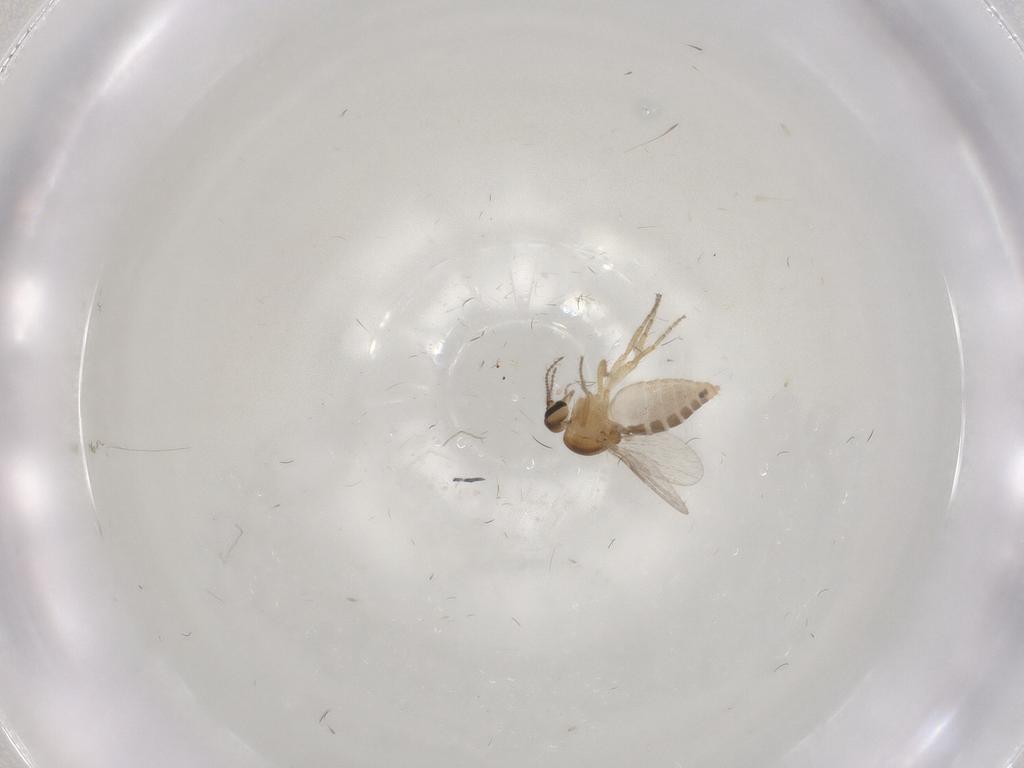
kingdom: Animalia
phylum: Arthropoda
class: Insecta
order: Diptera
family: Ceratopogonidae
